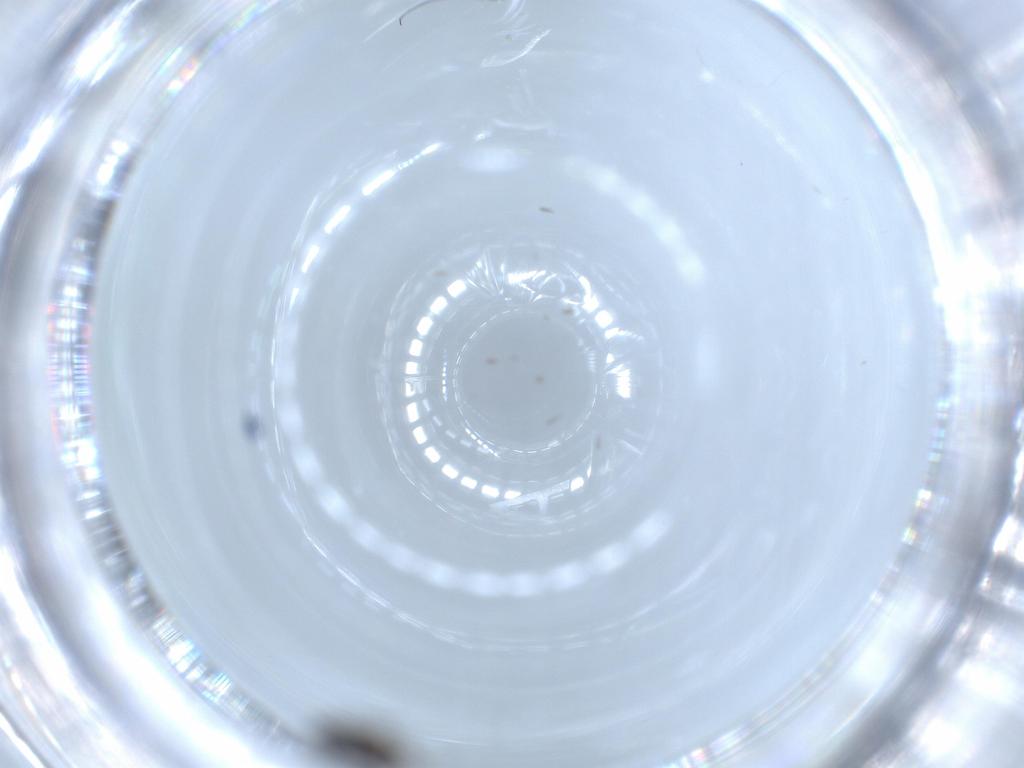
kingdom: Animalia
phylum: Arthropoda
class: Insecta
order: Diptera
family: Phoridae
